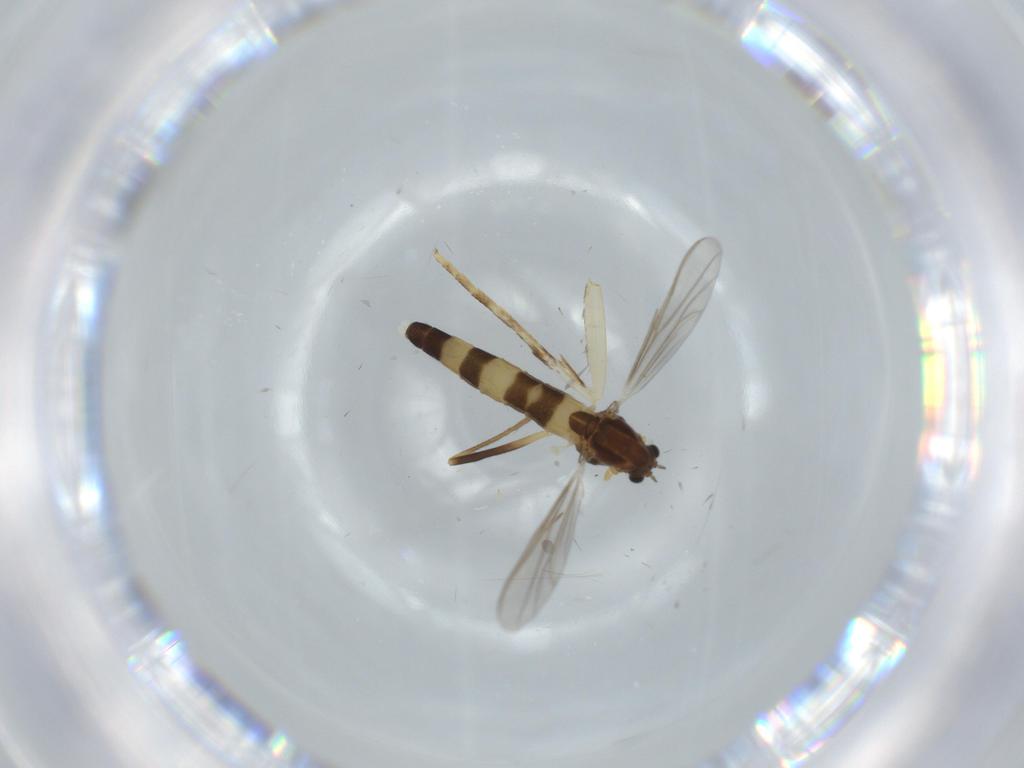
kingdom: Animalia
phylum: Arthropoda
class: Insecta
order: Diptera
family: Chironomidae
